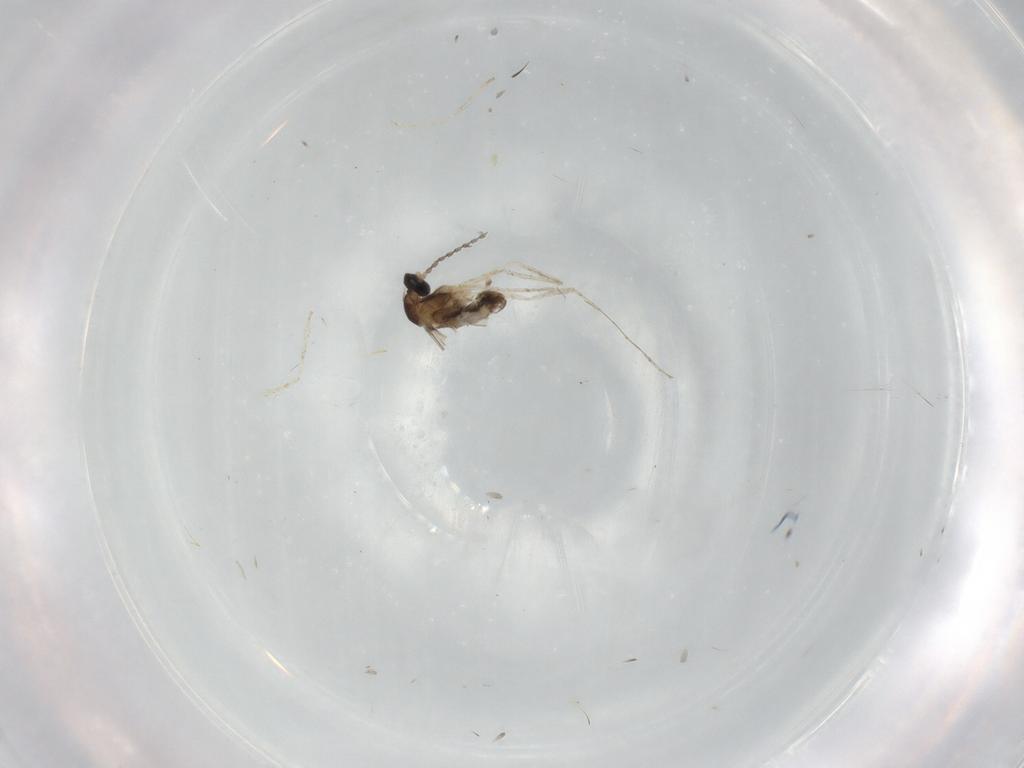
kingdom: Animalia
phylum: Arthropoda
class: Insecta
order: Diptera
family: Cecidomyiidae
